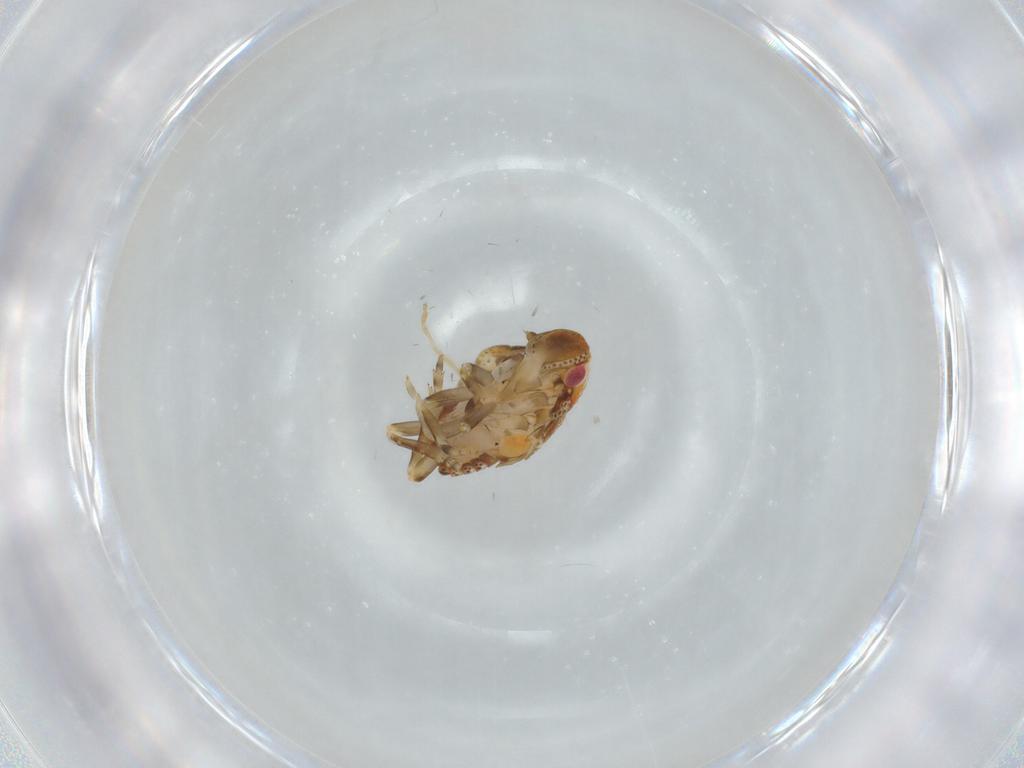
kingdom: Animalia
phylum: Arthropoda
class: Insecta
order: Hemiptera
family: Flatidae
